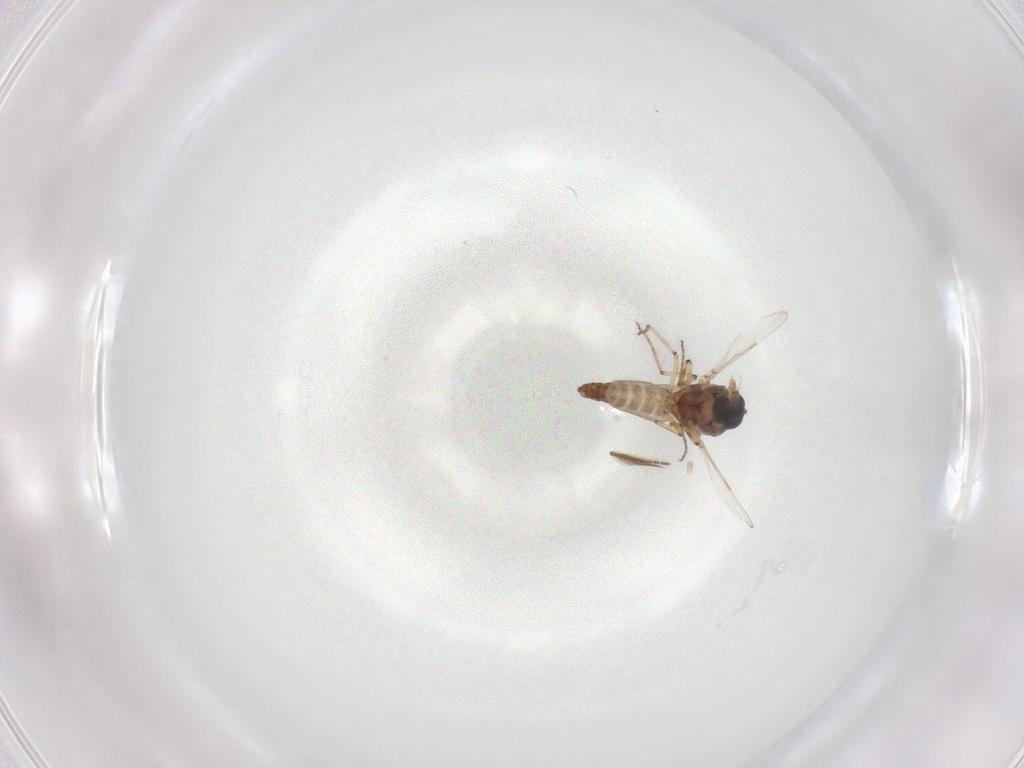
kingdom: Animalia
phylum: Arthropoda
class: Insecta
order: Diptera
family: Ceratopogonidae
